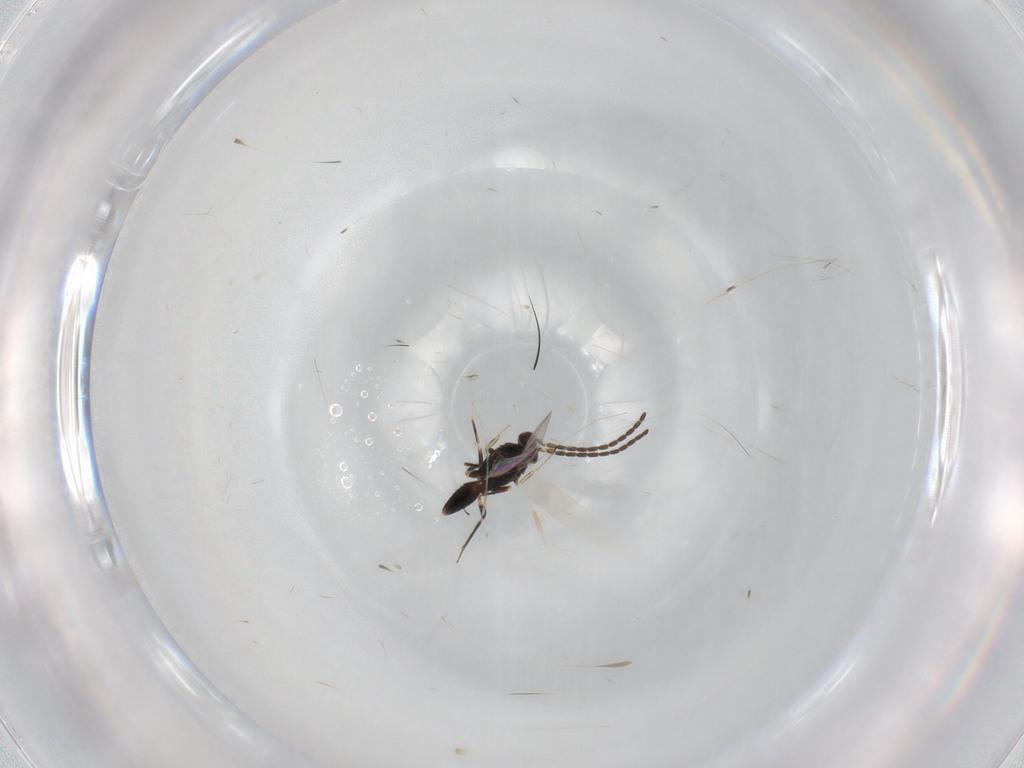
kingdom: Animalia
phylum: Arthropoda
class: Insecta
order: Hymenoptera
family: Mymaridae
